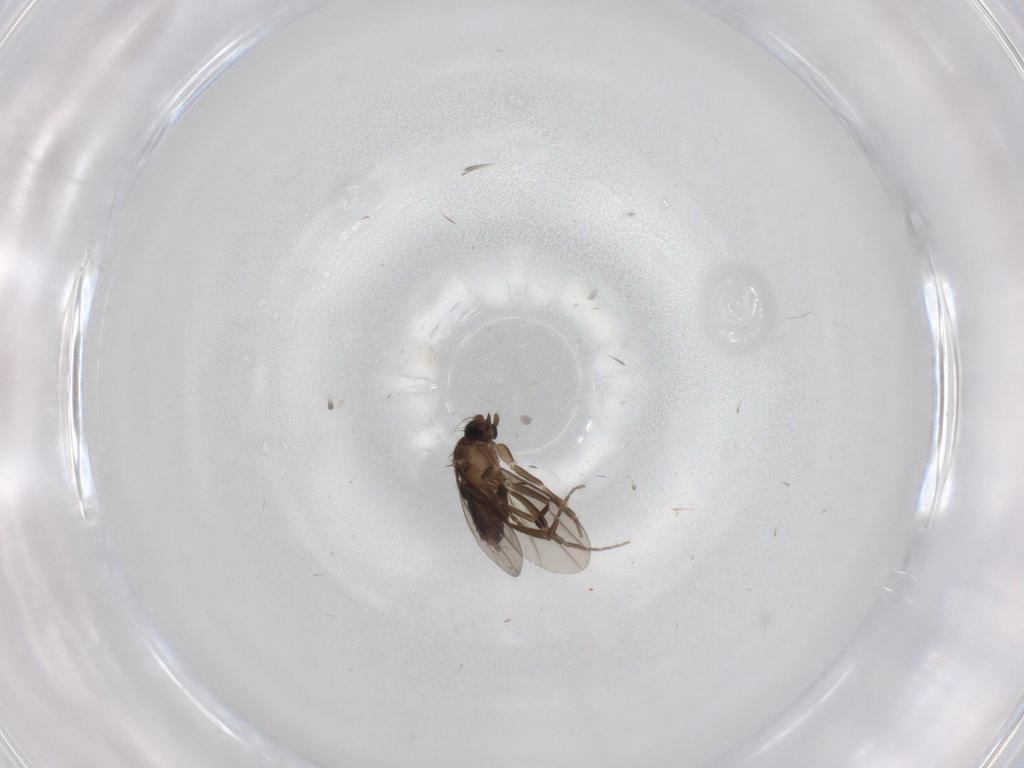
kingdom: Animalia
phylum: Arthropoda
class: Insecta
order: Diptera
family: Phoridae
